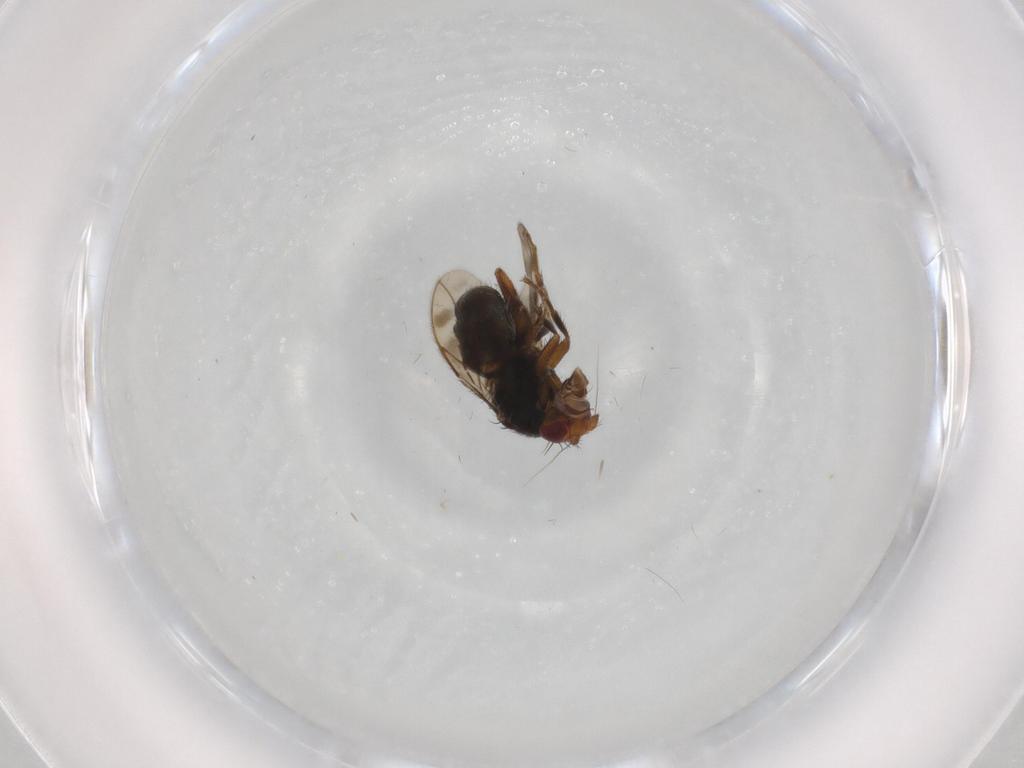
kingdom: Animalia
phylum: Arthropoda
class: Insecta
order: Diptera
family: Sphaeroceridae
